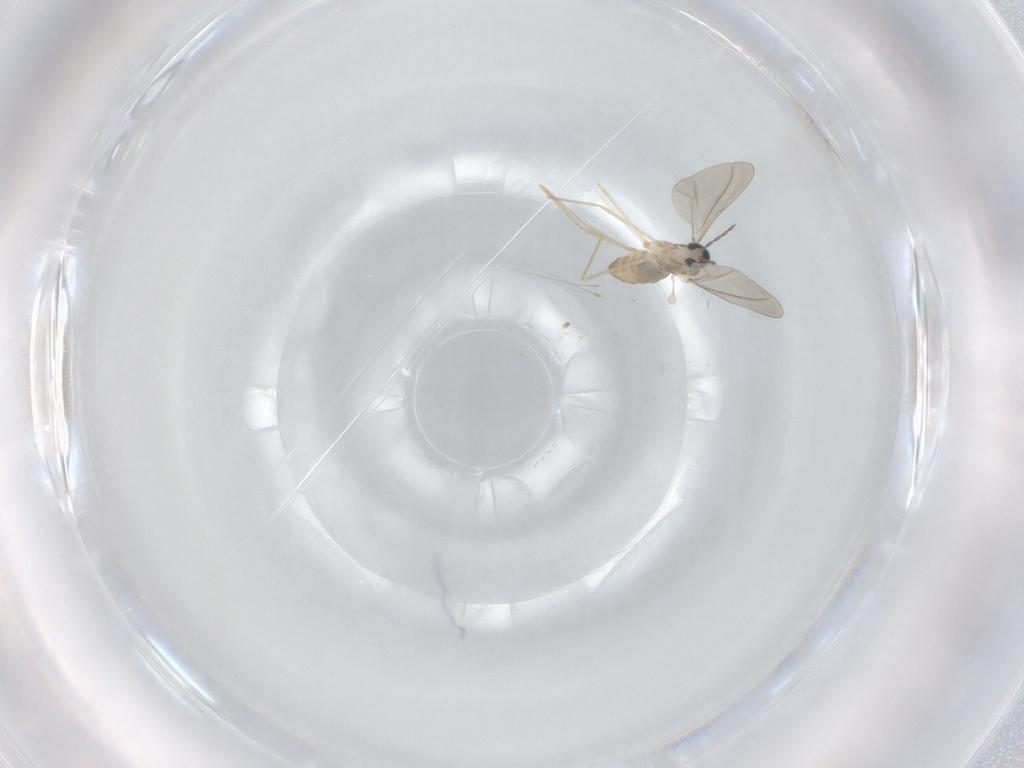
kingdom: Animalia
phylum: Arthropoda
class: Insecta
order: Diptera
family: Cecidomyiidae
